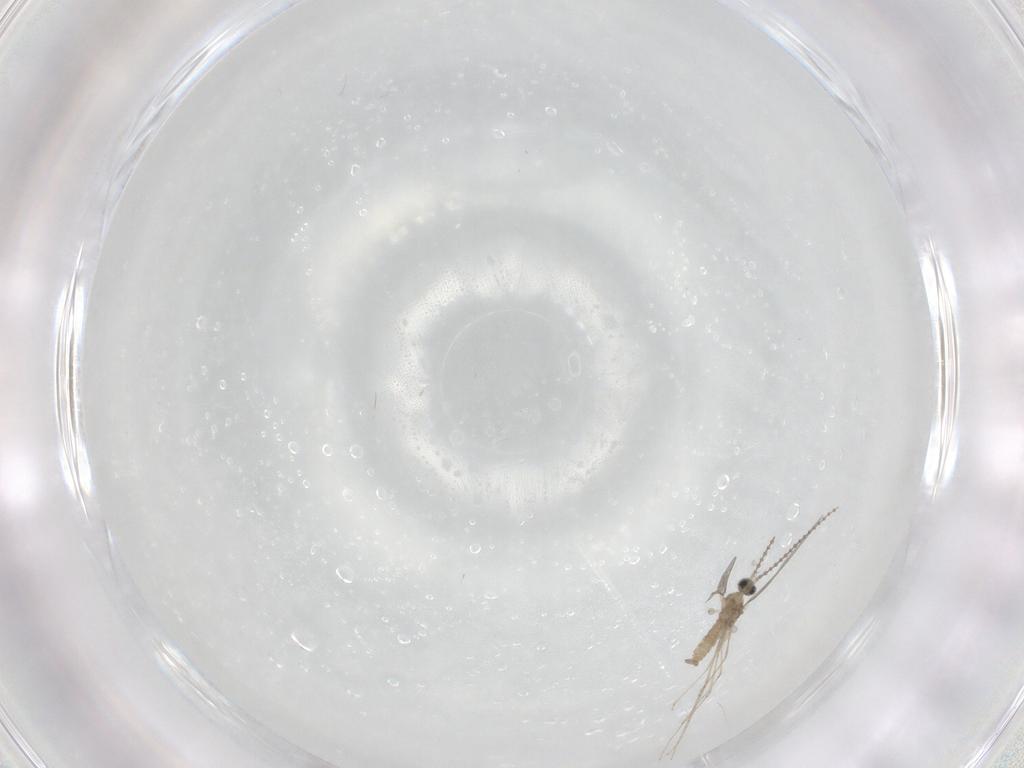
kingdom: Animalia
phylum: Arthropoda
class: Insecta
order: Diptera
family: Cecidomyiidae
